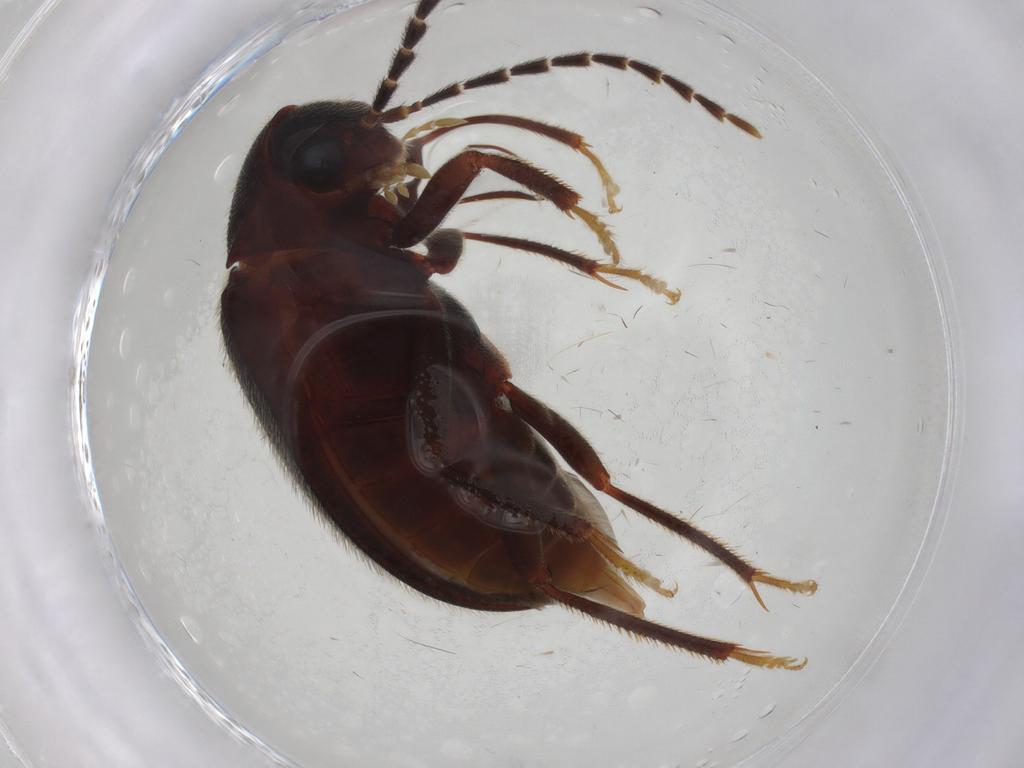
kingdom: Animalia
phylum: Arthropoda
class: Insecta
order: Coleoptera
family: Ptilodactylidae
